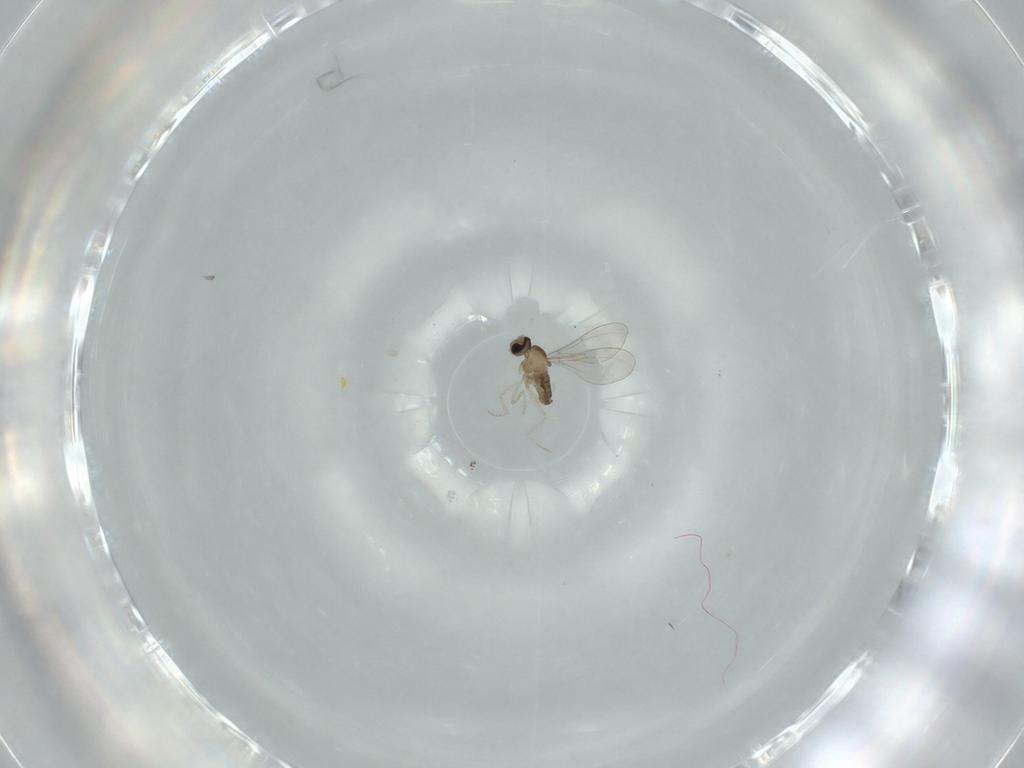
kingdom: Animalia
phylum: Arthropoda
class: Insecta
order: Diptera
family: Cecidomyiidae
